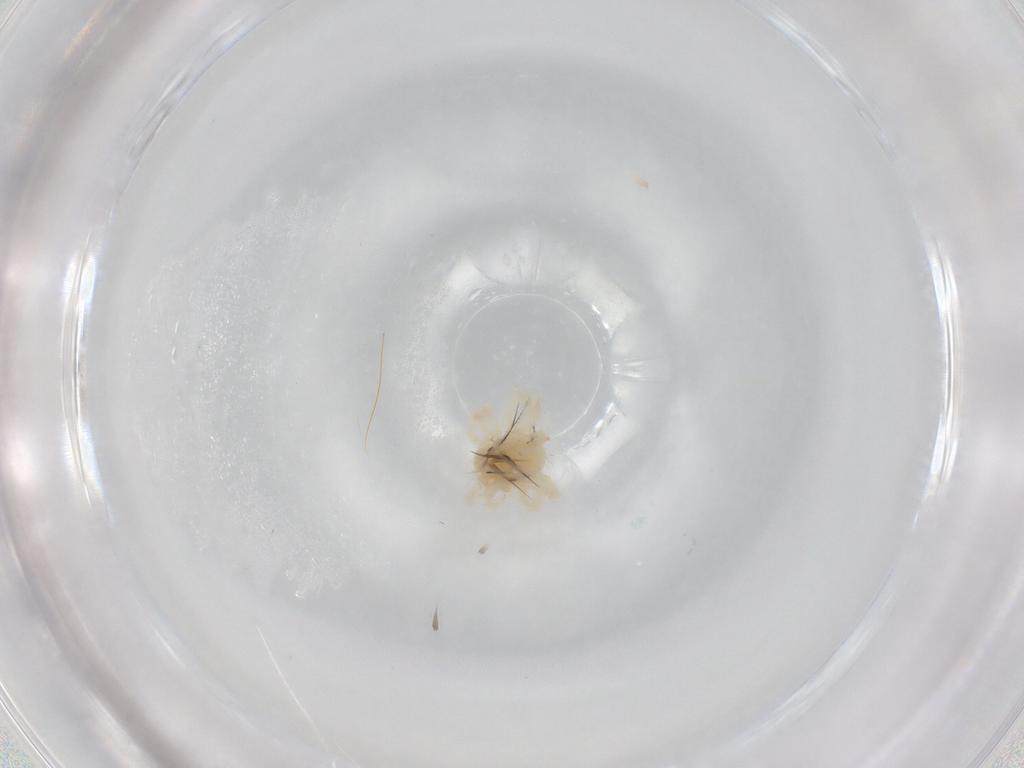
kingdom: Animalia
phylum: Arthropoda
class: Arachnida
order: Trombidiformes
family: Anystidae
